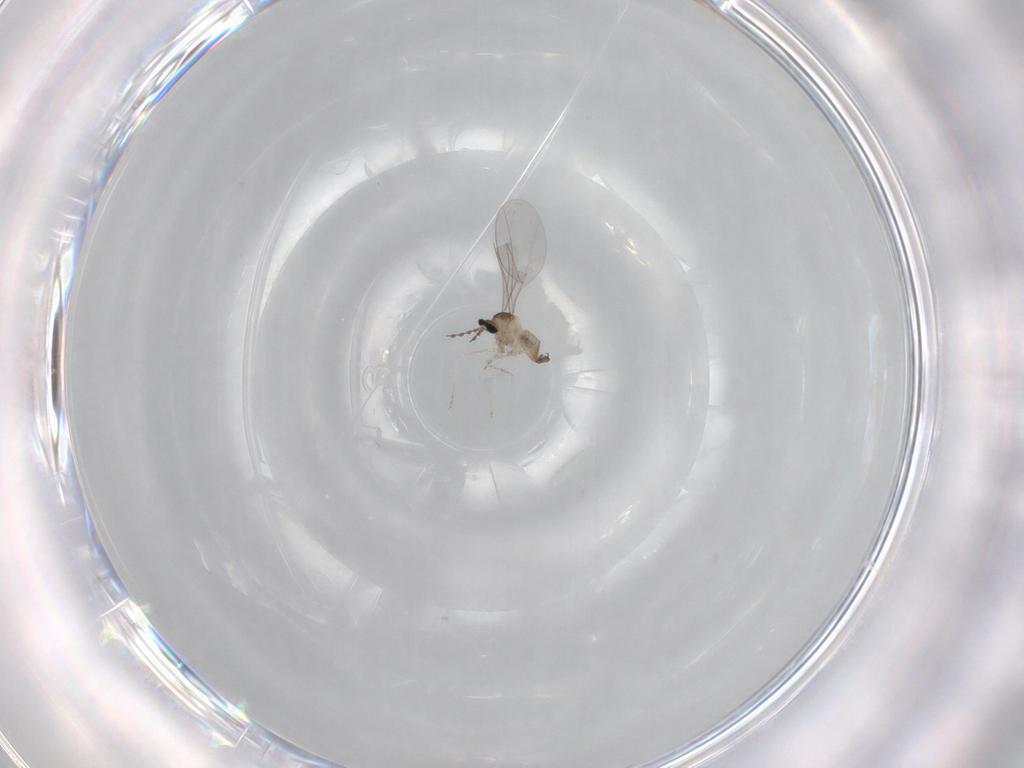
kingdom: Animalia
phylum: Arthropoda
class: Insecta
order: Diptera
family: Cecidomyiidae
